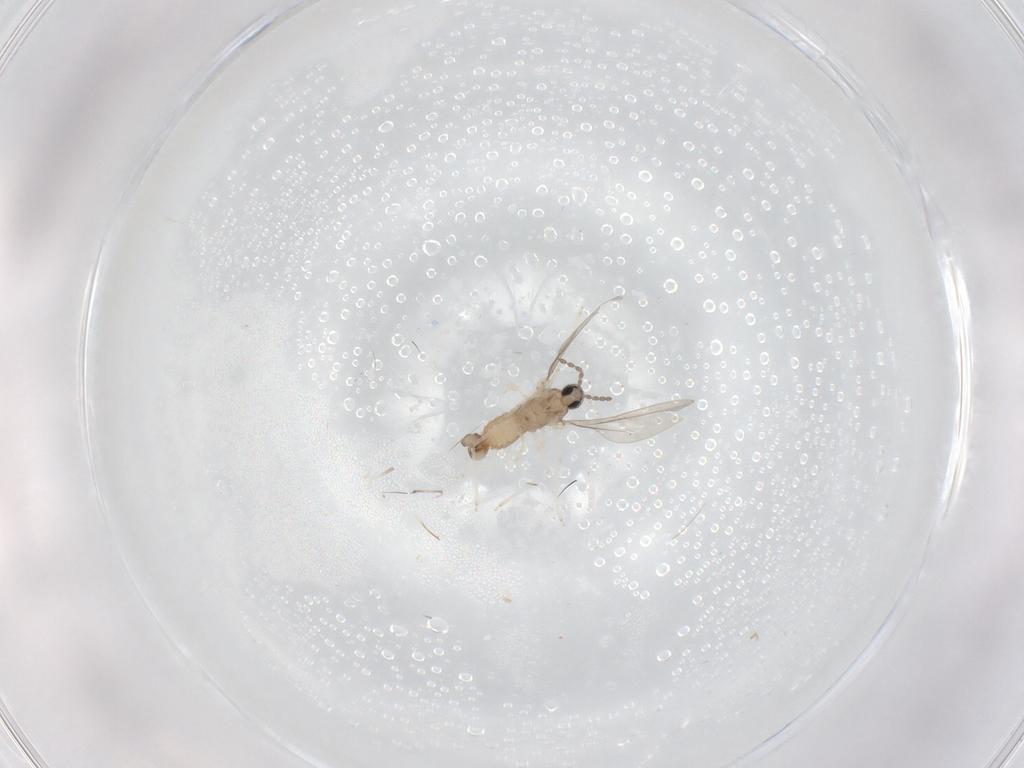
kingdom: Animalia
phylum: Arthropoda
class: Insecta
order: Diptera
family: Cecidomyiidae
